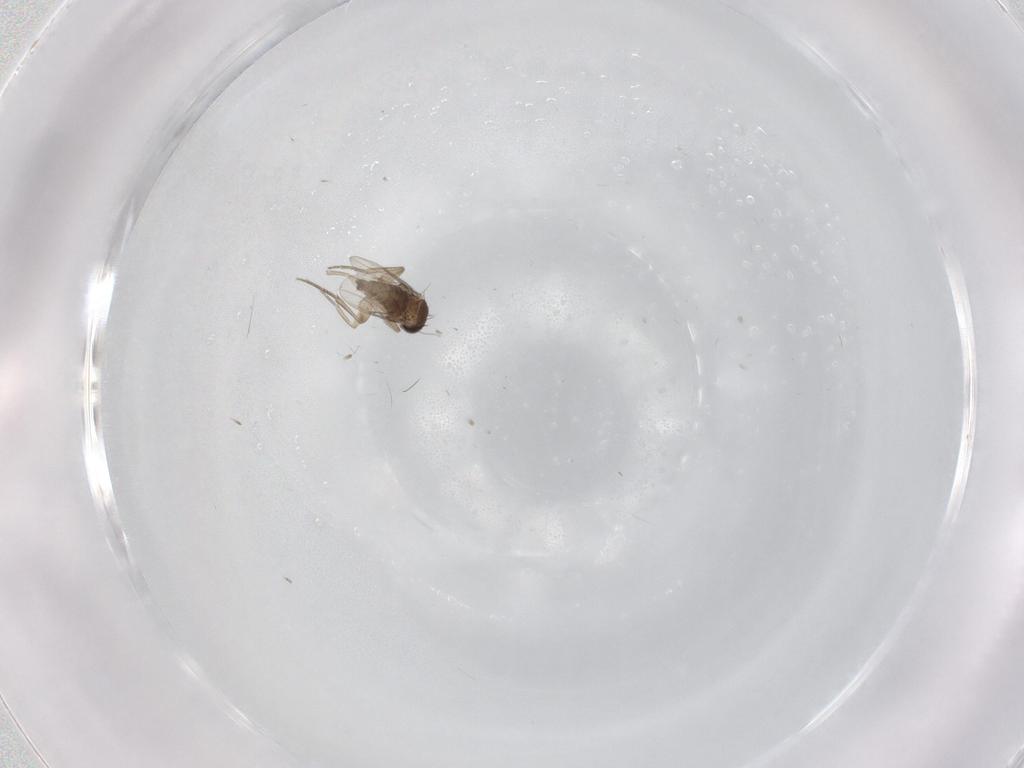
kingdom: Animalia
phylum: Arthropoda
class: Insecta
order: Diptera
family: Phoridae
